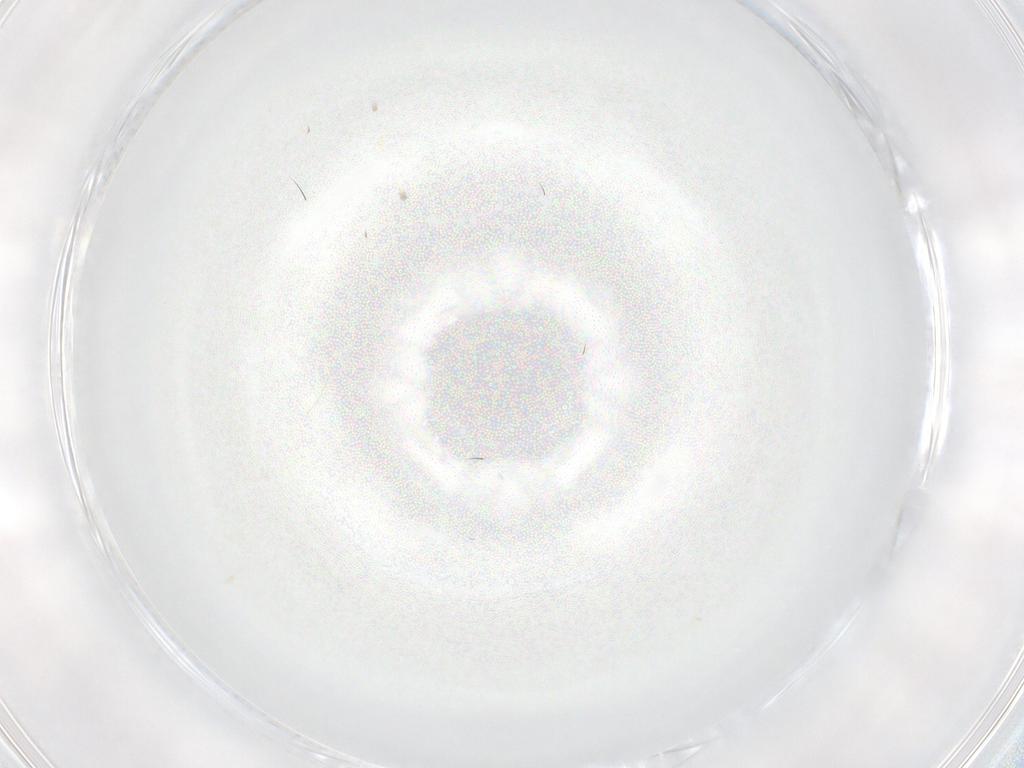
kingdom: Animalia
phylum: Arthropoda
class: Insecta
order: Diptera
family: Cecidomyiidae
